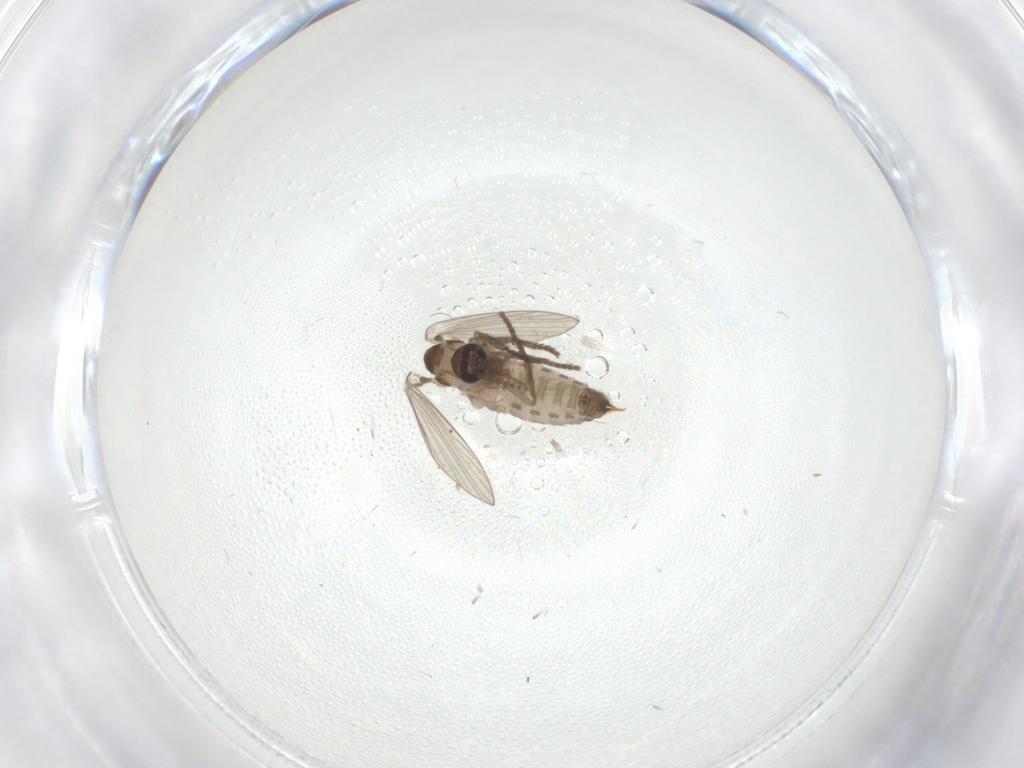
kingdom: Animalia
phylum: Arthropoda
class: Insecta
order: Diptera
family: Psychodidae
